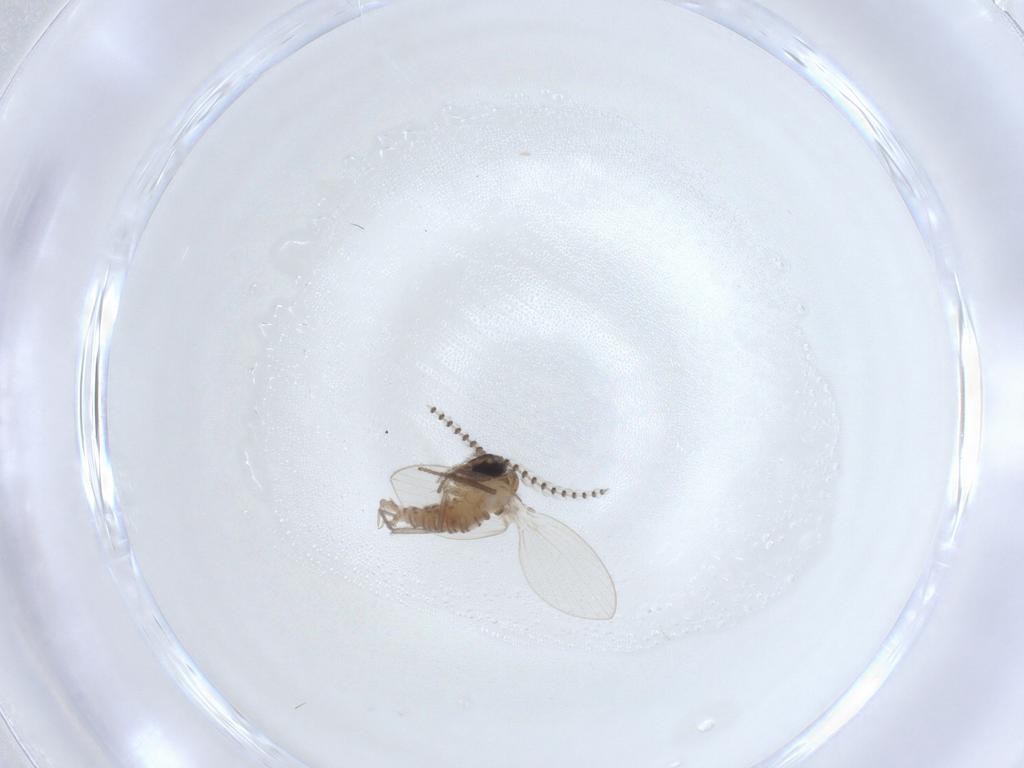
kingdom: Animalia
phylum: Arthropoda
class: Insecta
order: Diptera
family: Psychodidae
